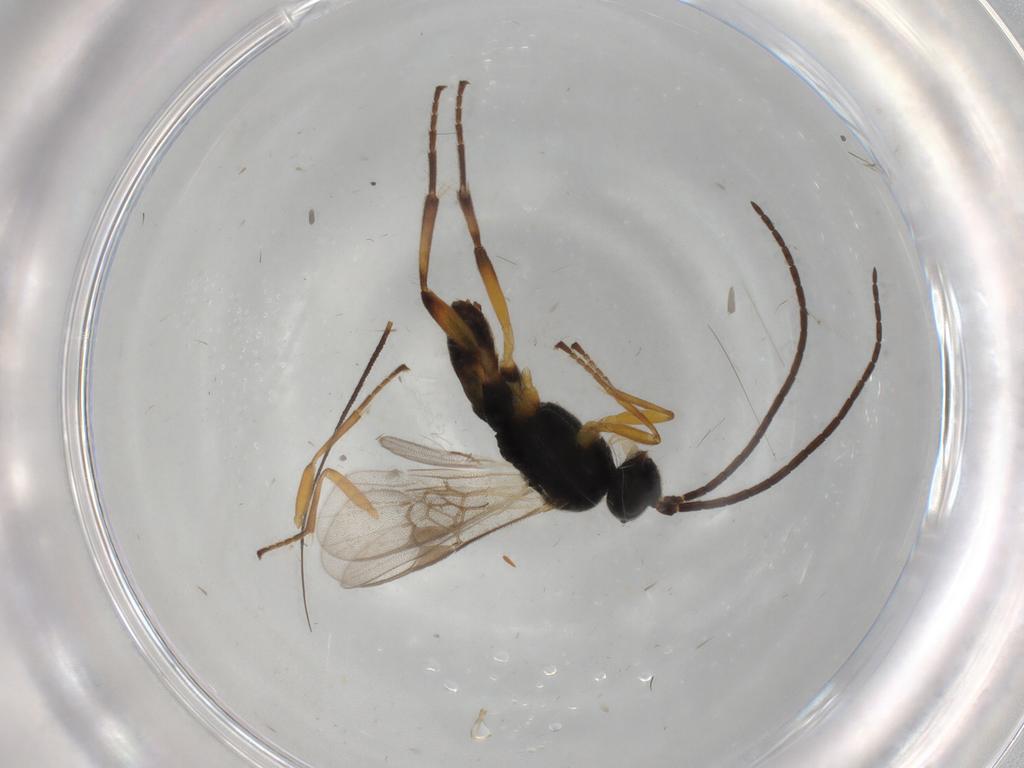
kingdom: Animalia
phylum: Arthropoda
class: Insecta
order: Hymenoptera
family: Braconidae
